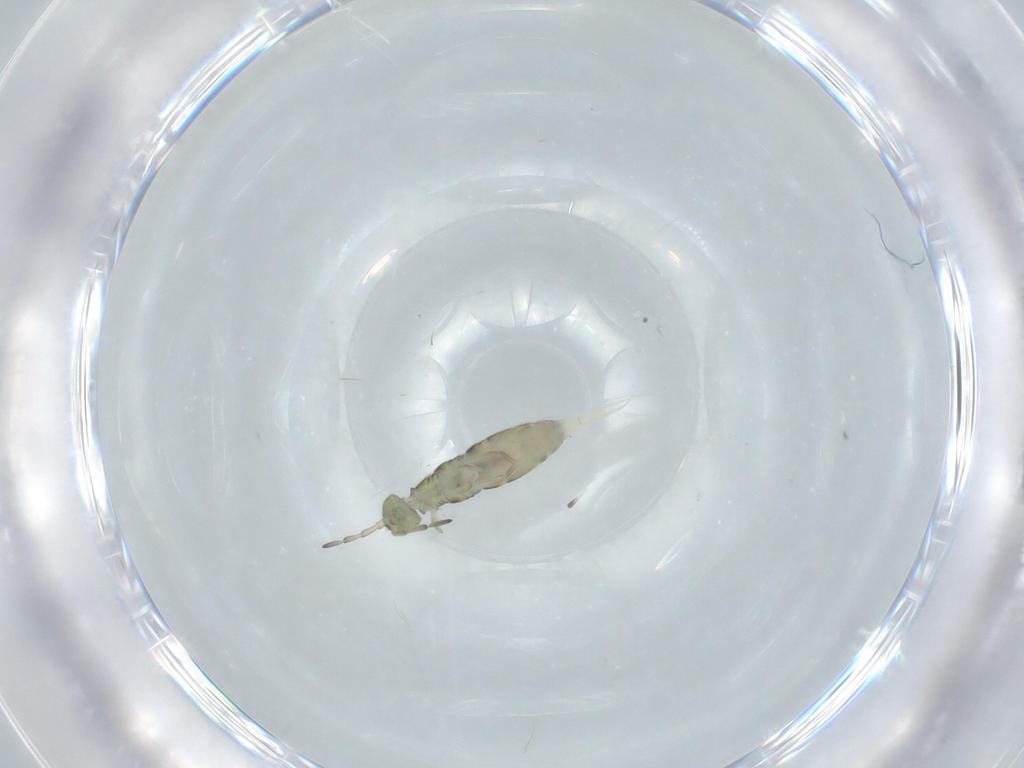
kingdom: Animalia
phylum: Arthropoda
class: Collembola
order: Entomobryomorpha
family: Isotomidae
